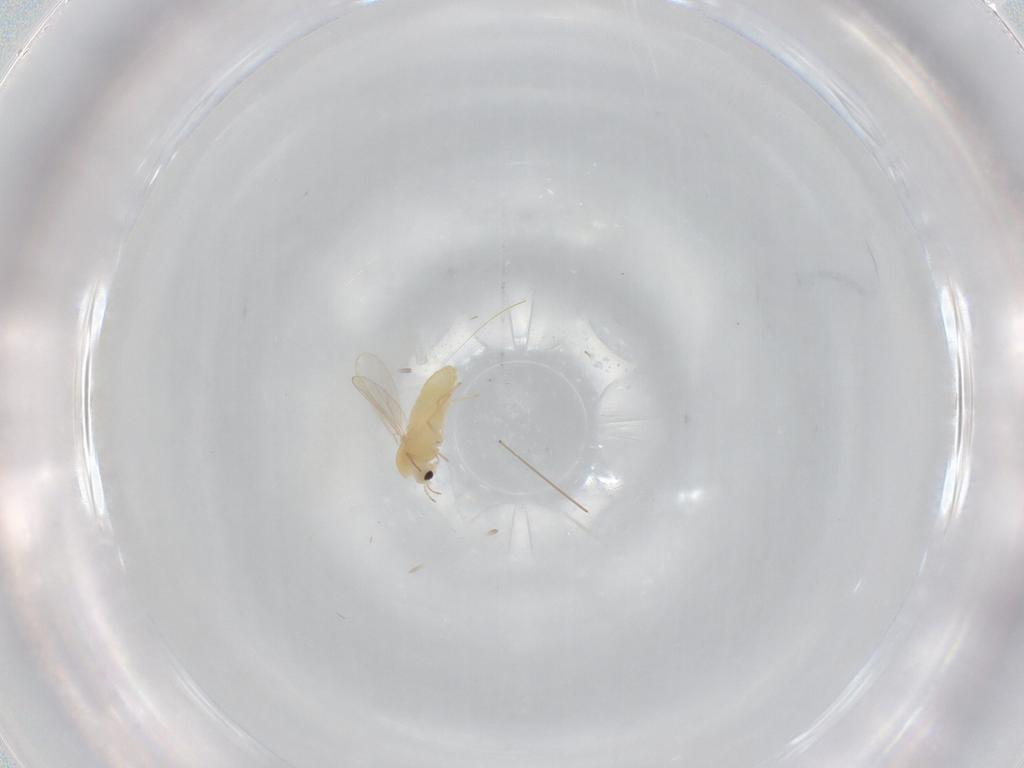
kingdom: Animalia
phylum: Arthropoda
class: Insecta
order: Diptera
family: Chironomidae
